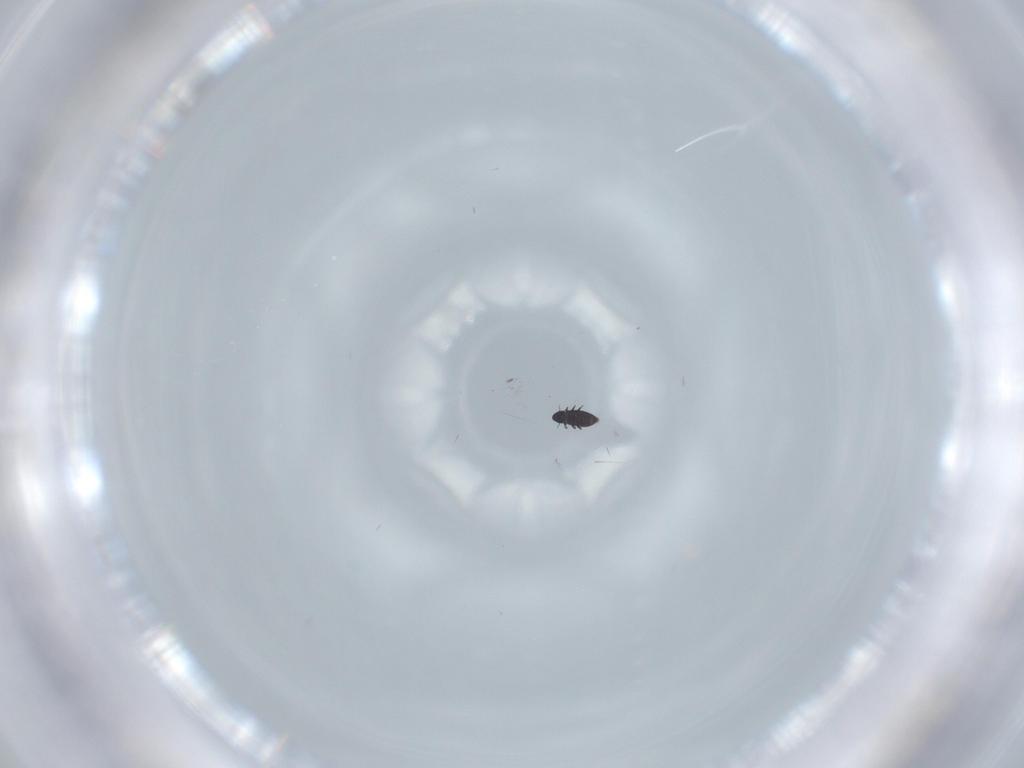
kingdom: Animalia
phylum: Arthropoda
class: Insecta
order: Coleoptera
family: Ripiphoridae
